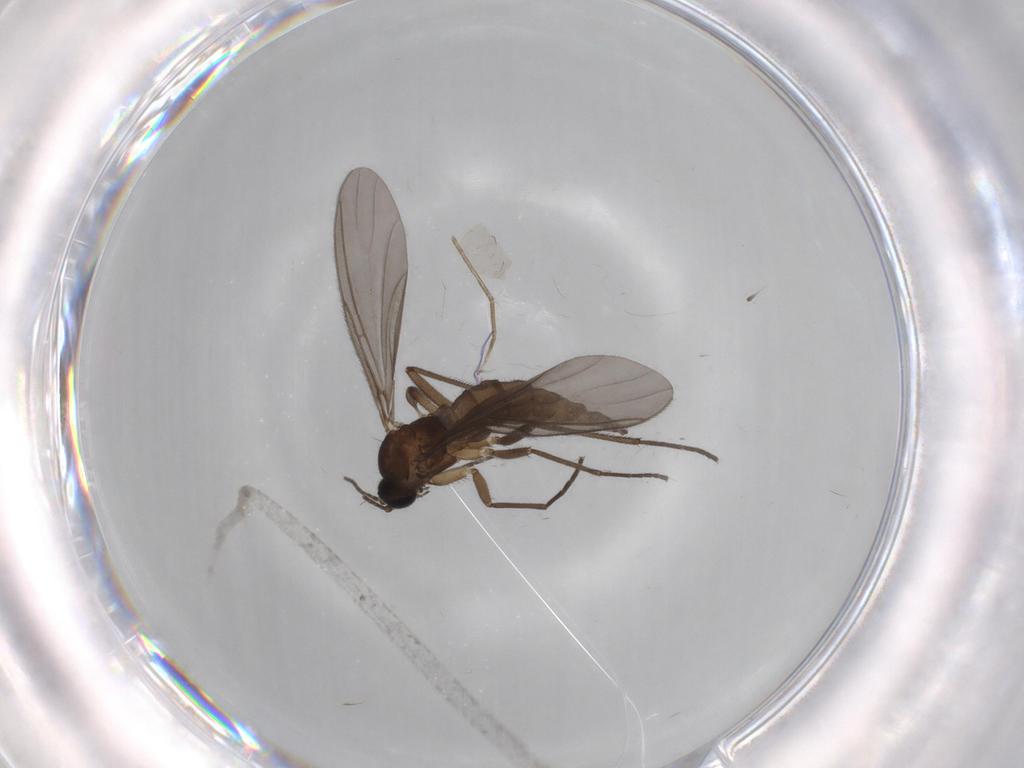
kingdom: Animalia
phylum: Arthropoda
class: Insecta
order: Diptera
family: Sciaridae
